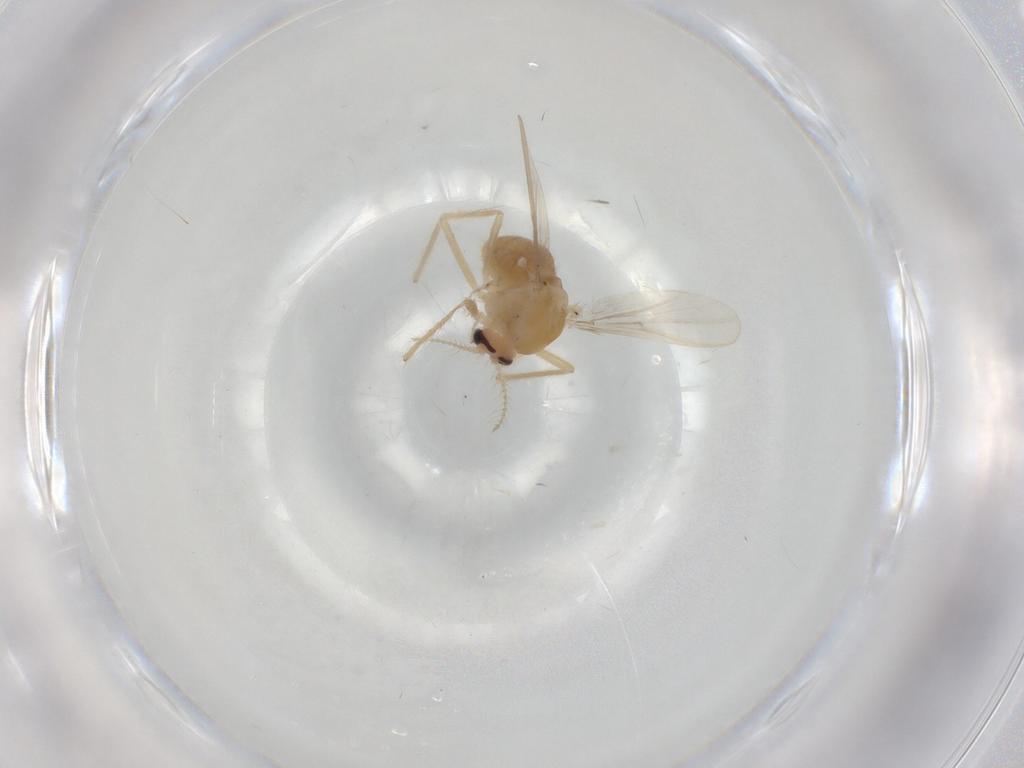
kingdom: Animalia
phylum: Arthropoda
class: Insecta
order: Diptera
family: Chironomidae
